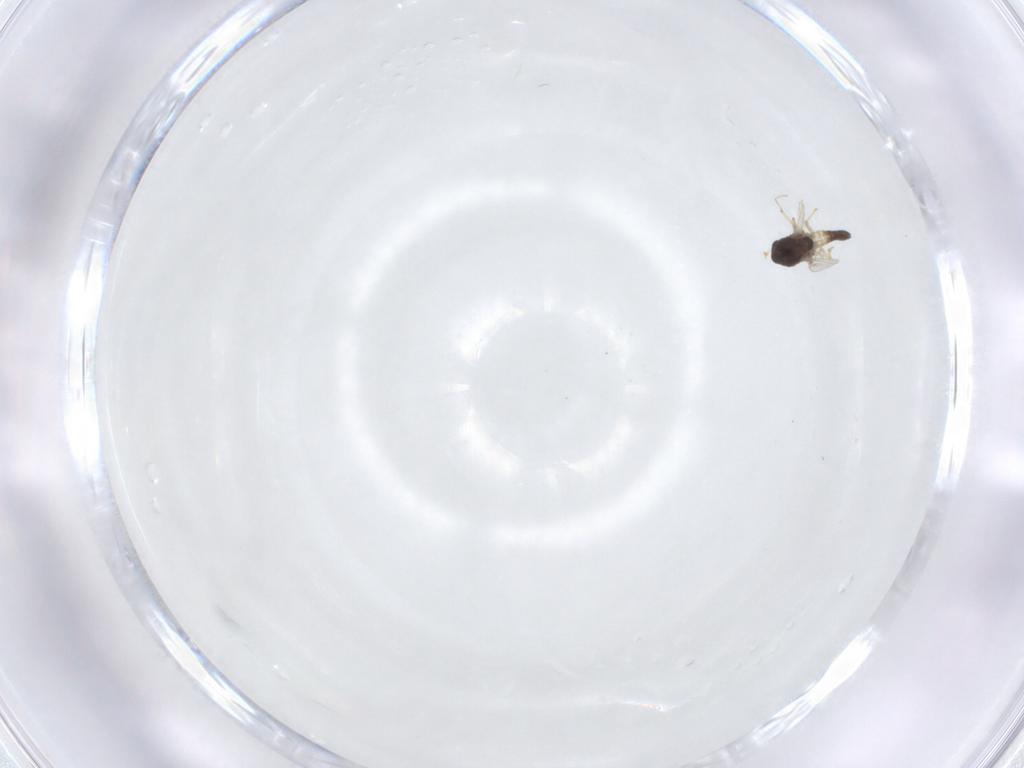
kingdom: Animalia
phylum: Arthropoda
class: Insecta
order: Diptera
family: Chironomidae
